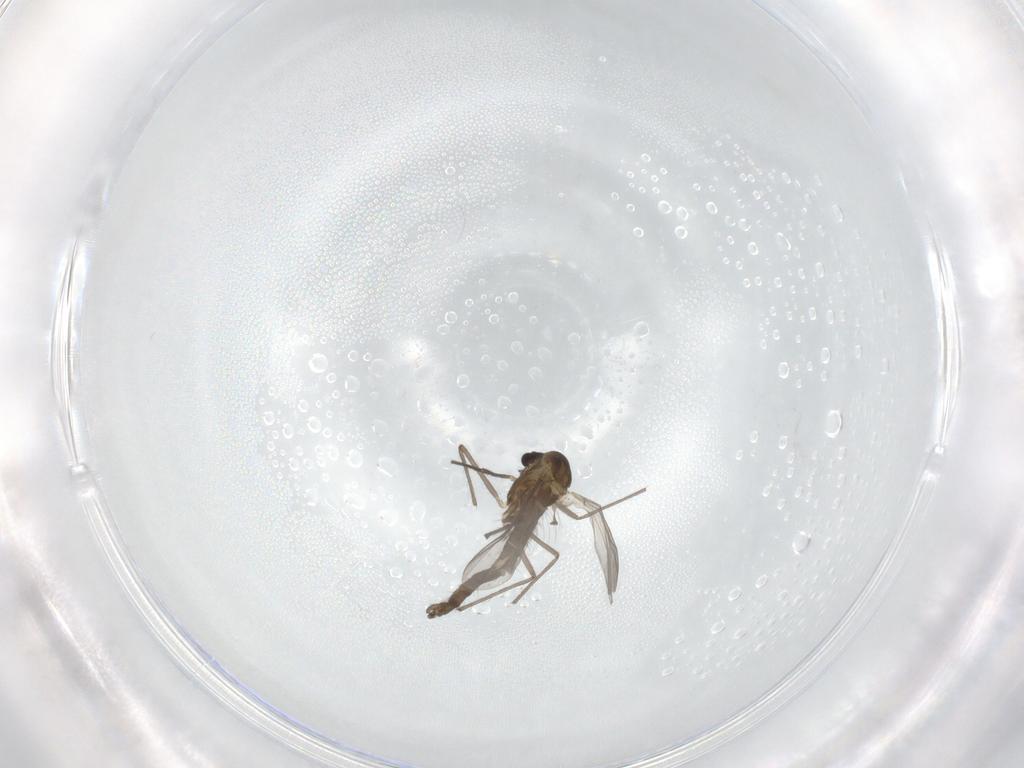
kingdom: Animalia
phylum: Arthropoda
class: Insecta
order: Diptera
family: Chironomidae
